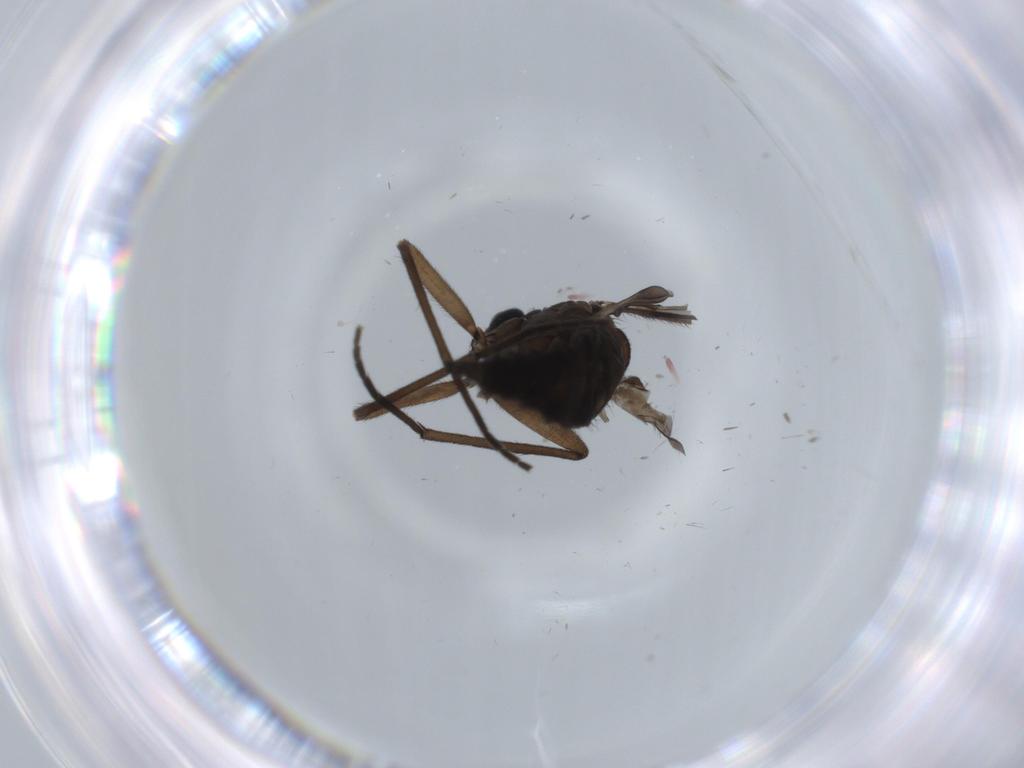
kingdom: Animalia
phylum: Arthropoda
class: Insecta
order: Diptera
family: Sciaridae
